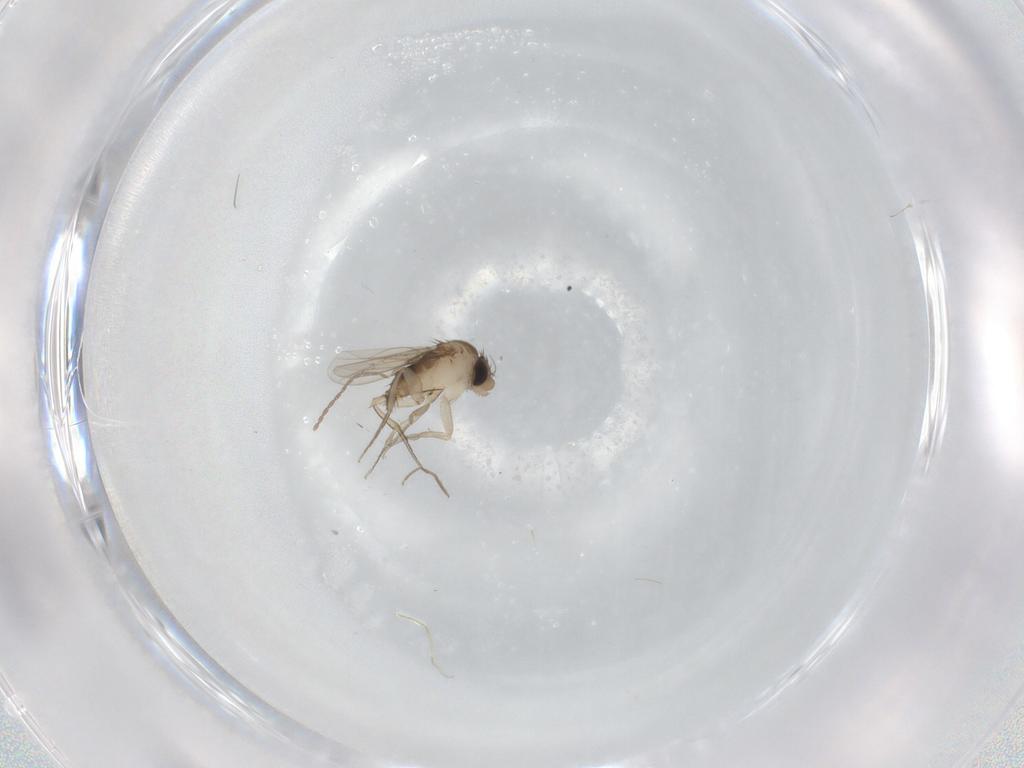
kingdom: Animalia
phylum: Arthropoda
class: Insecta
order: Diptera
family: Phoridae
